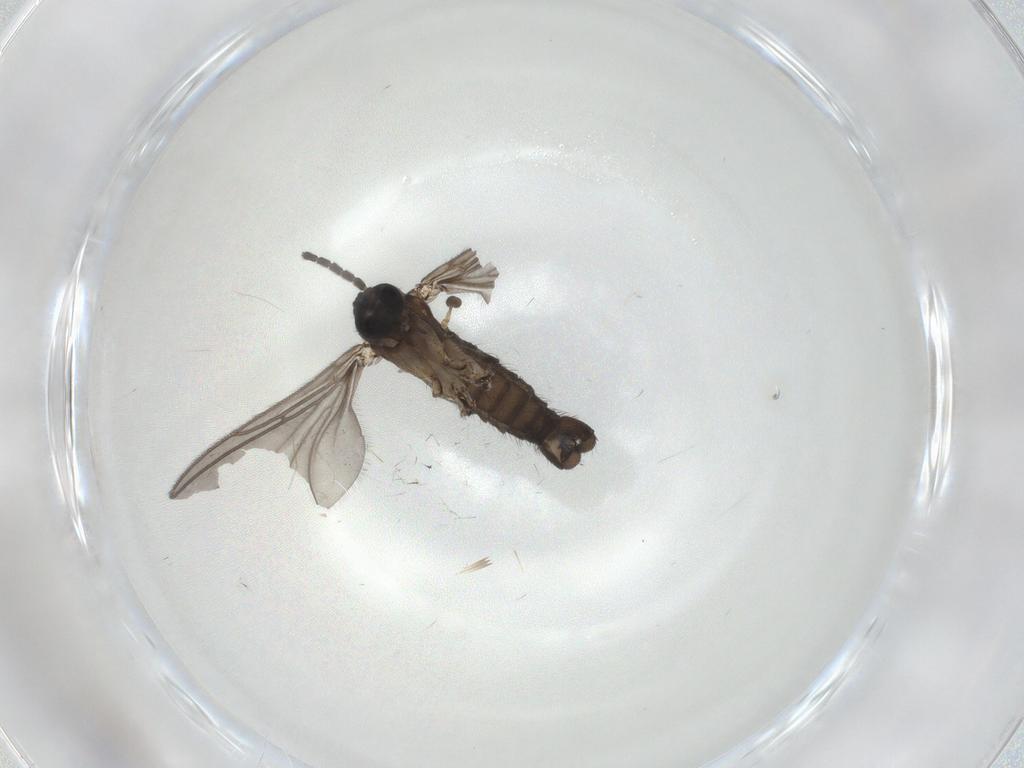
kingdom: Animalia
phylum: Arthropoda
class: Insecta
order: Diptera
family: Sciaridae
